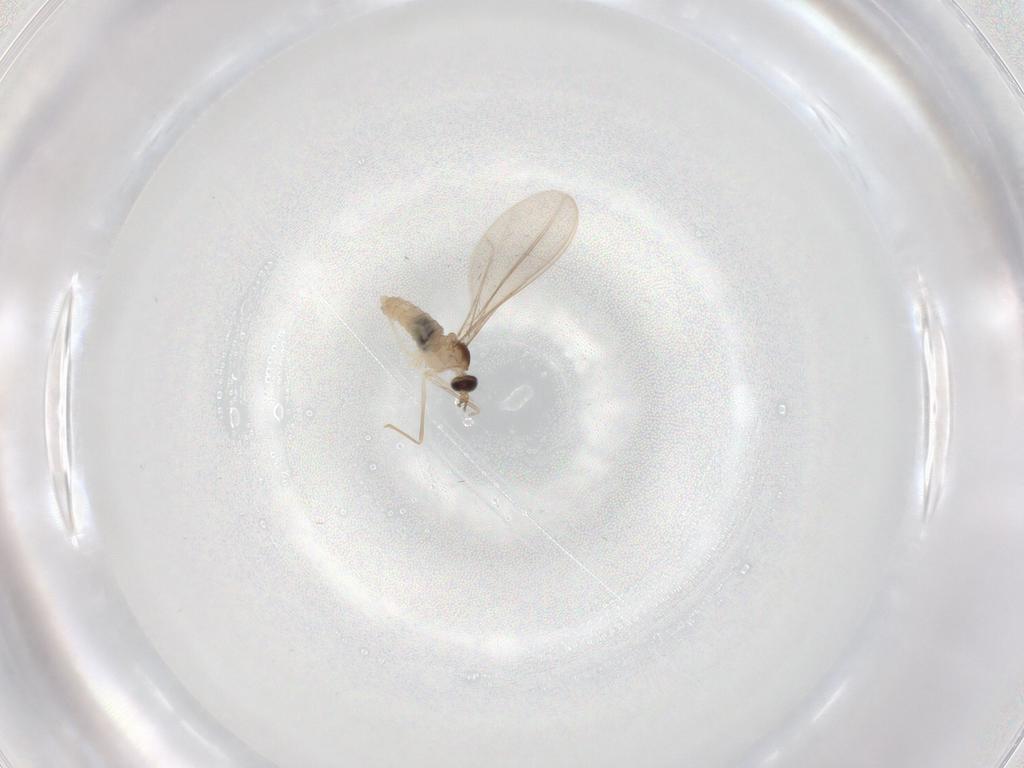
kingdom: Animalia
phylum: Arthropoda
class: Insecta
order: Diptera
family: Cecidomyiidae
